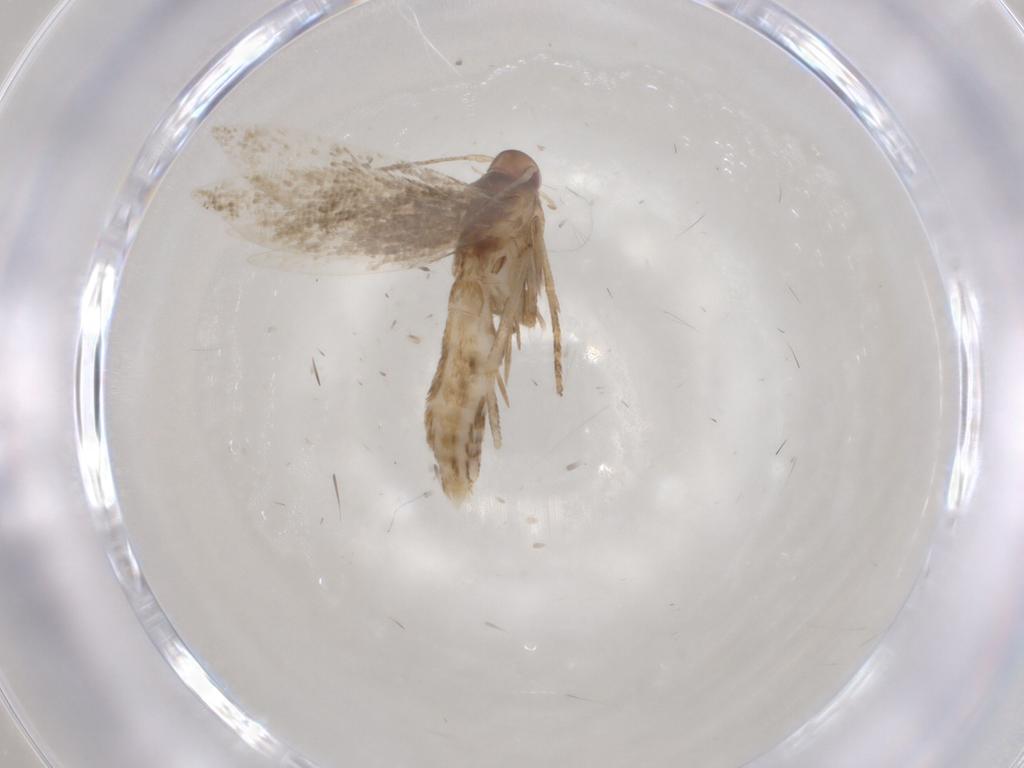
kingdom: Animalia
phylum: Arthropoda
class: Insecta
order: Lepidoptera
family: Momphidae
